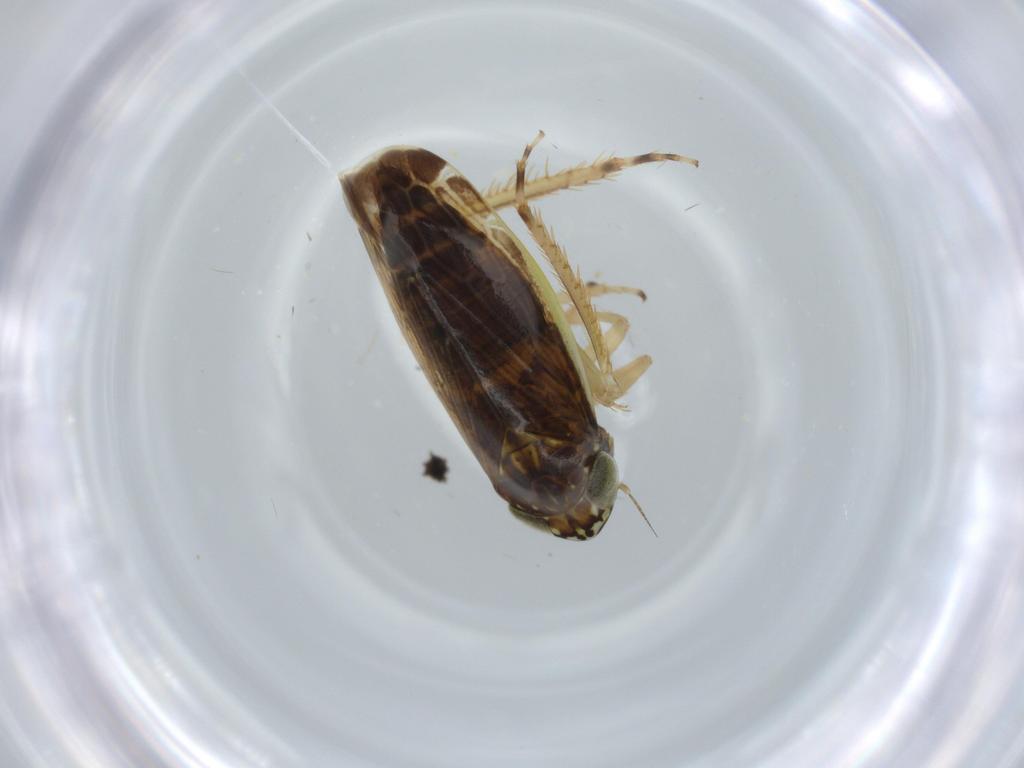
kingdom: Animalia
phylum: Arthropoda
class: Insecta
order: Hemiptera
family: Cicadellidae
